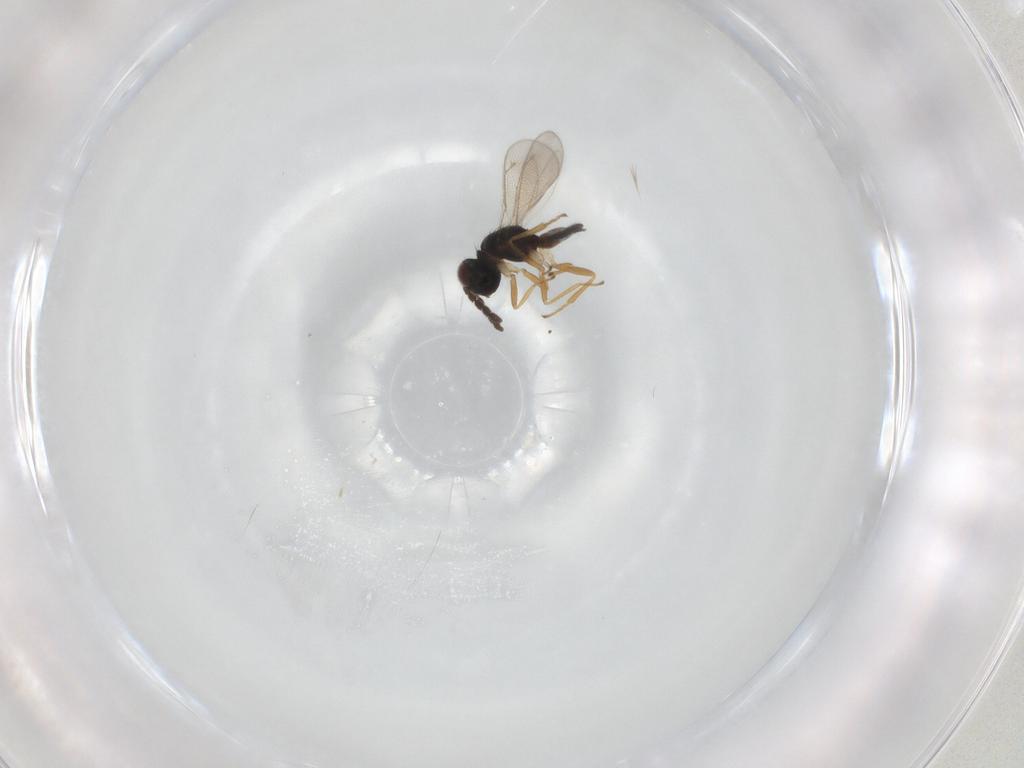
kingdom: Animalia
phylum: Arthropoda
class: Insecta
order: Hymenoptera
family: Eulophidae
